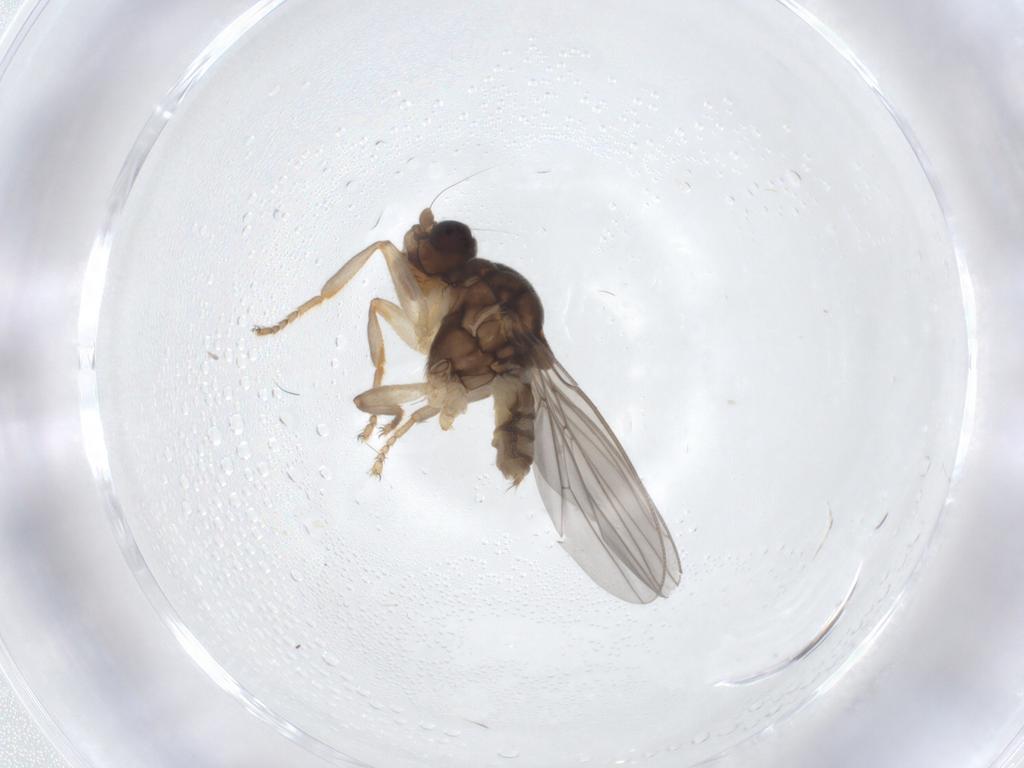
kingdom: Animalia
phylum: Arthropoda
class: Insecta
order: Diptera
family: Sphaeroceridae
